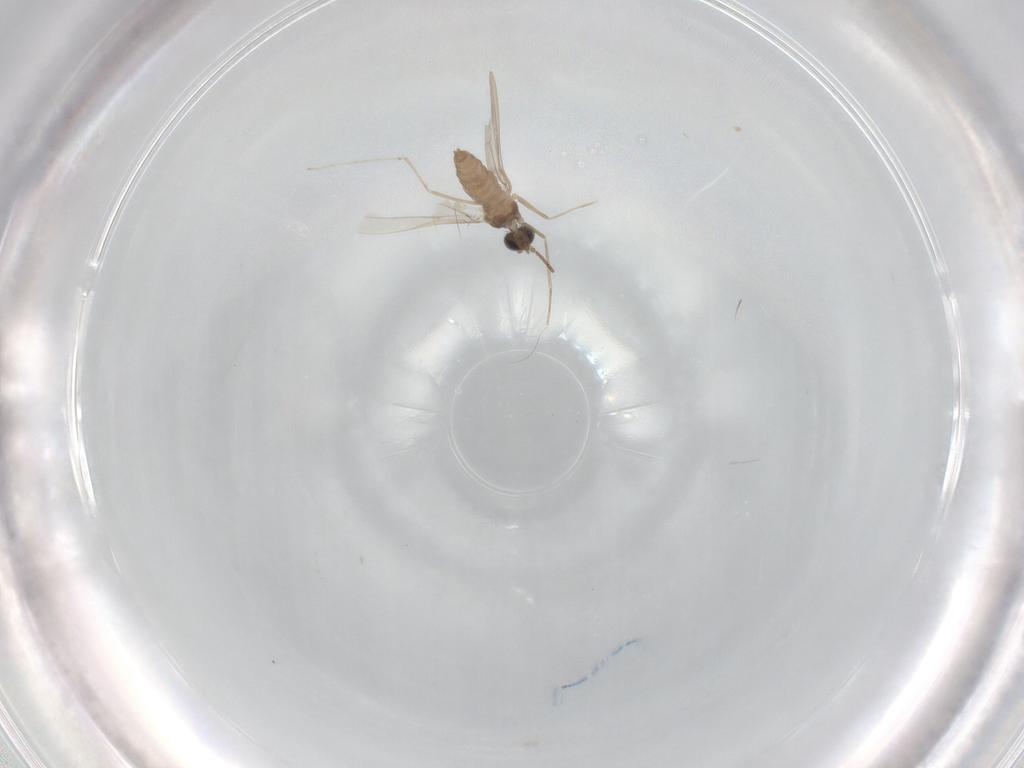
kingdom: Animalia
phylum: Arthropoda
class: Insecta
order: Diptera
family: Cecidomyiidae
